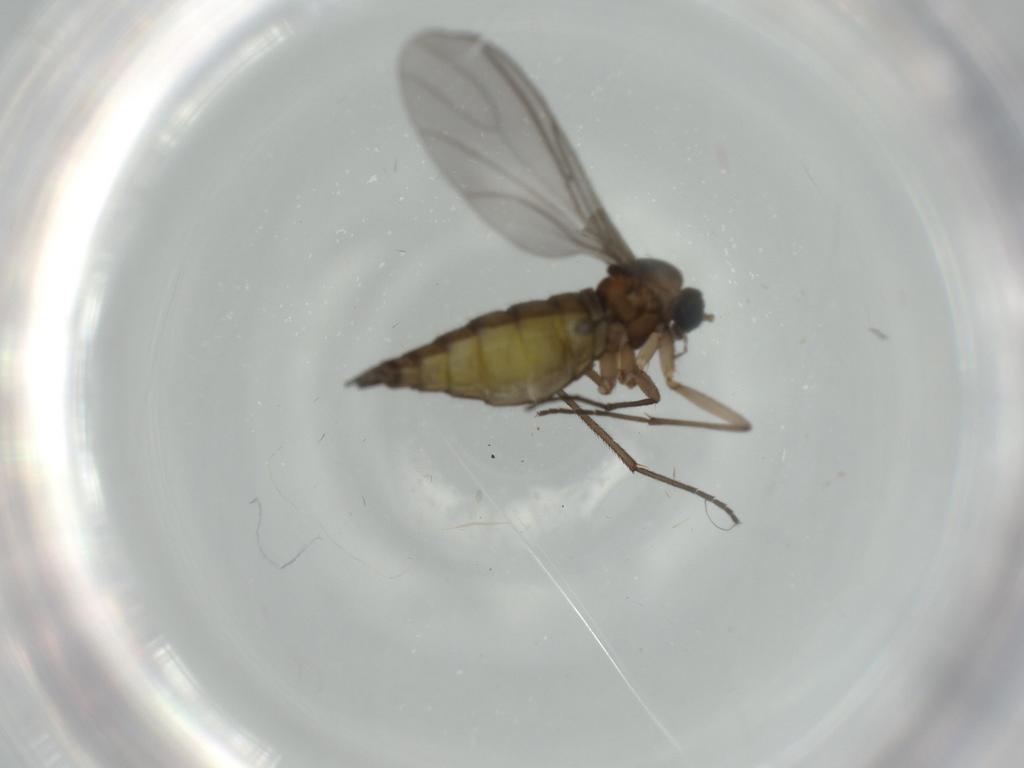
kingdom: Animalia
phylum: Arthropoda
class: Insecta
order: Diptera
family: Sciaridae
